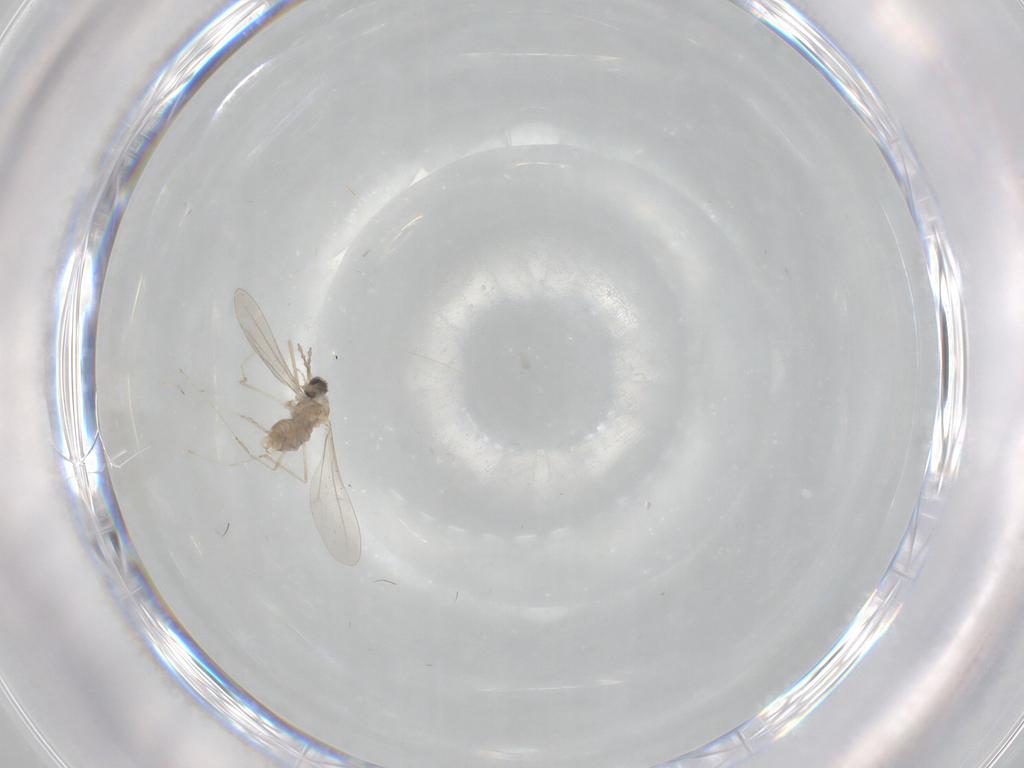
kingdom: Animalia
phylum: Arthropoda
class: Insecta
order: Diptera
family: Cecidomyiidae
